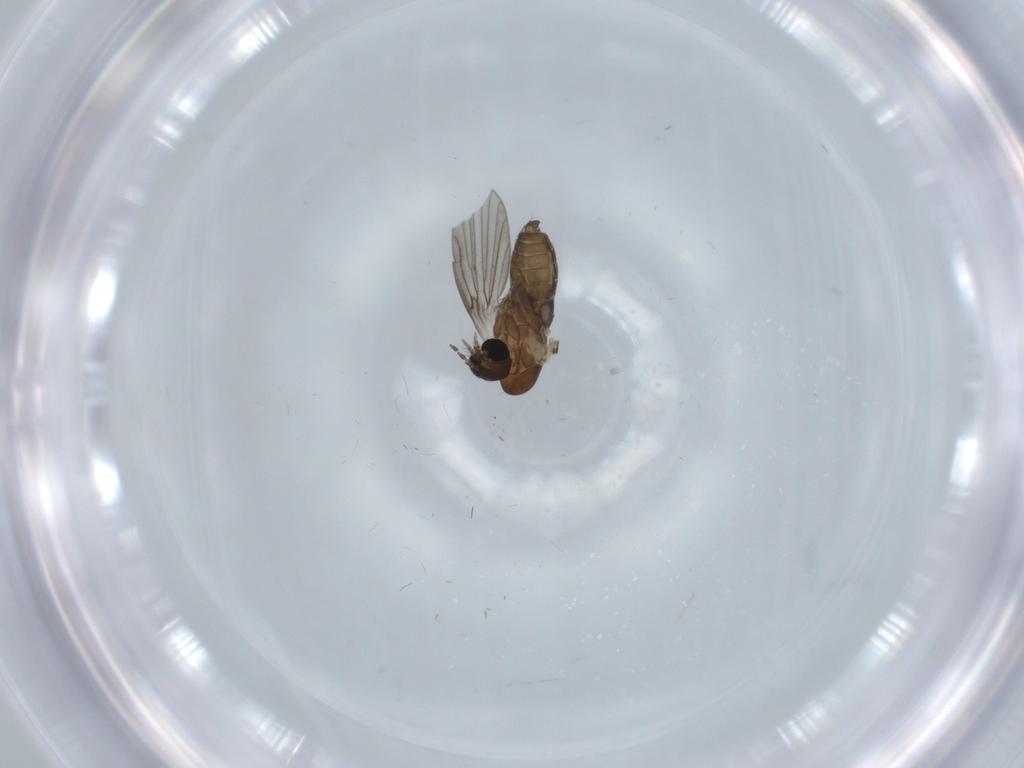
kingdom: Animalia
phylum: Arthropoda
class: Insecta
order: Diptera
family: Psychodidae
